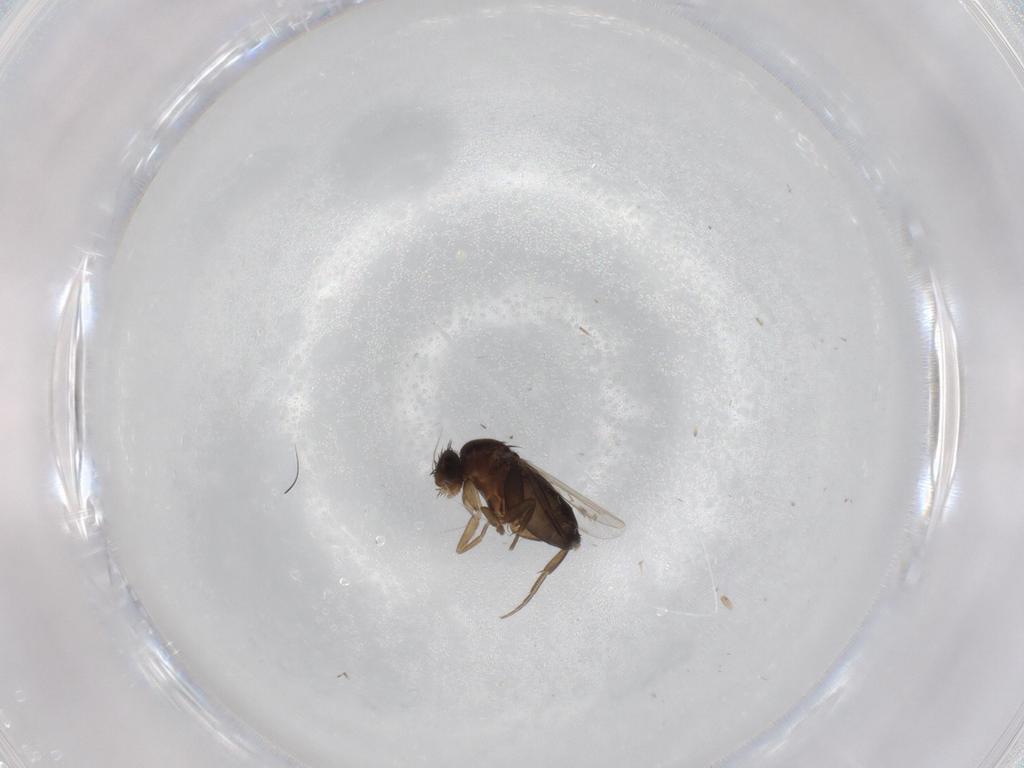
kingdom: Animalia
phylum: Arthropoda
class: Insecta
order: Diptera
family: Phoridae
